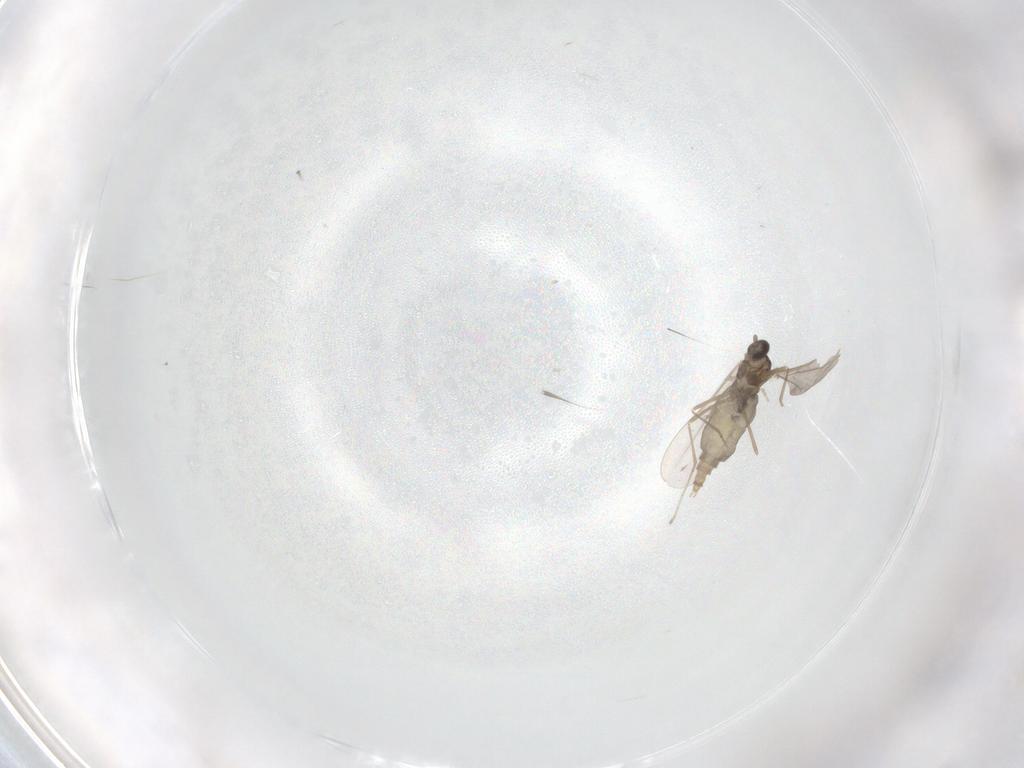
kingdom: Animalia
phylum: Arthropoda
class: Insecta
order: Diptera
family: Cecidomyiidae
